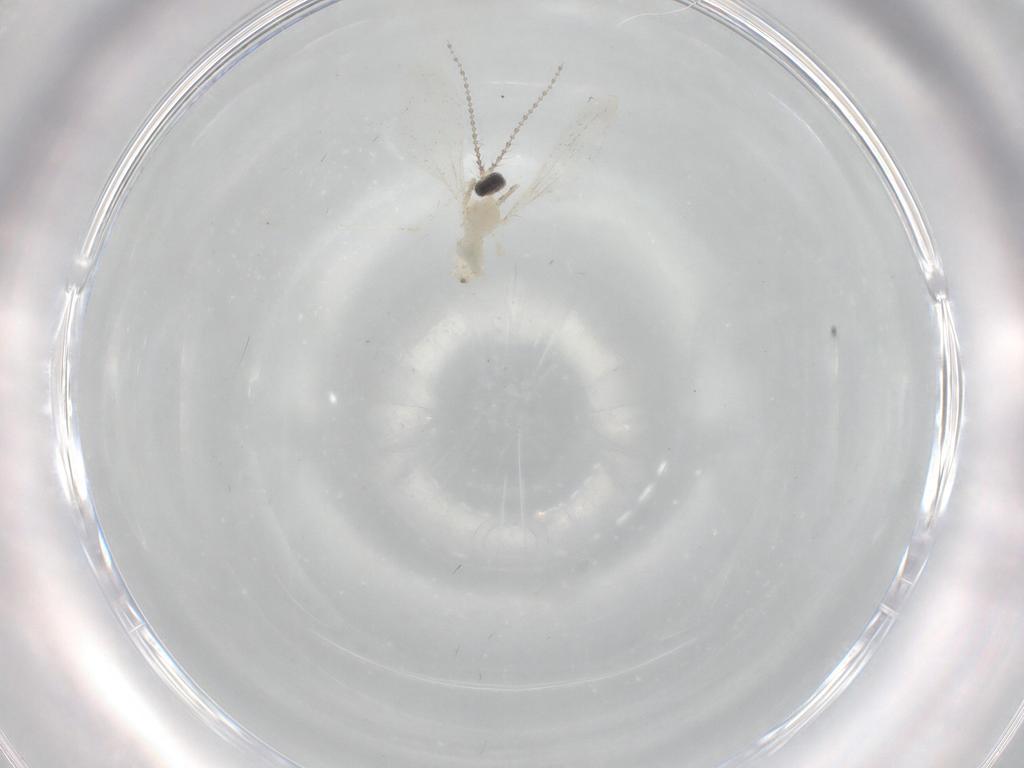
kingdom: Animalia
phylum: Arthropoda
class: Insecta
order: Diptera
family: Cecidomyiidae
